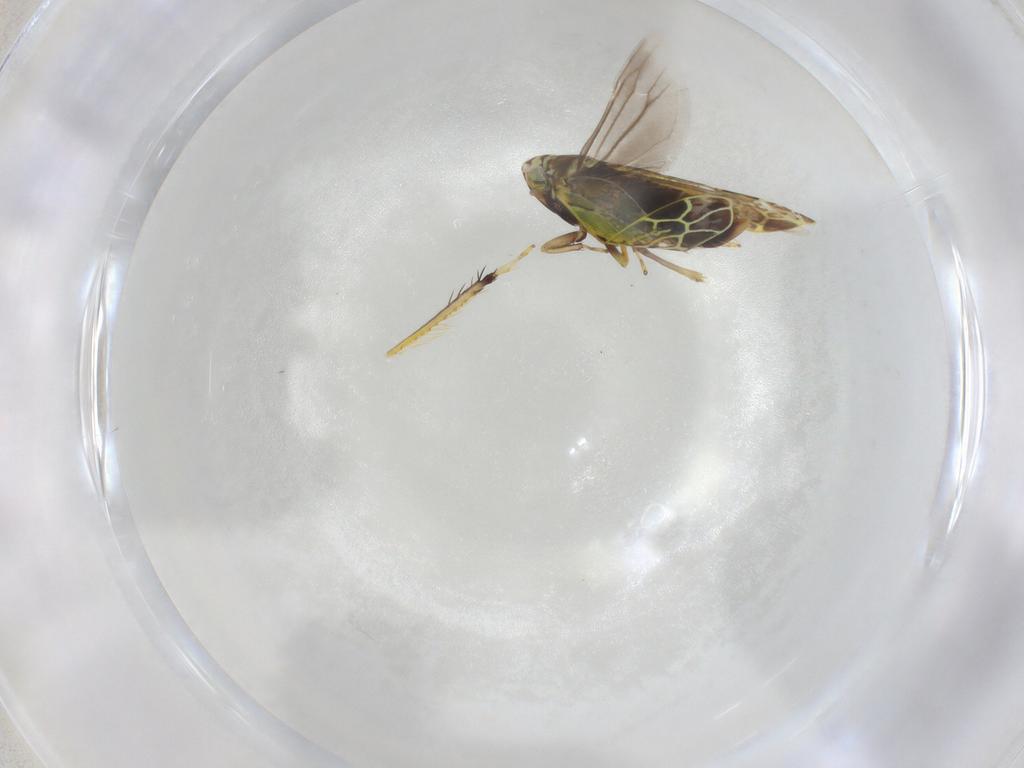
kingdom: Animalia
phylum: Arthropoda
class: Insecta
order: Hemiptera
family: Cicadellidae
